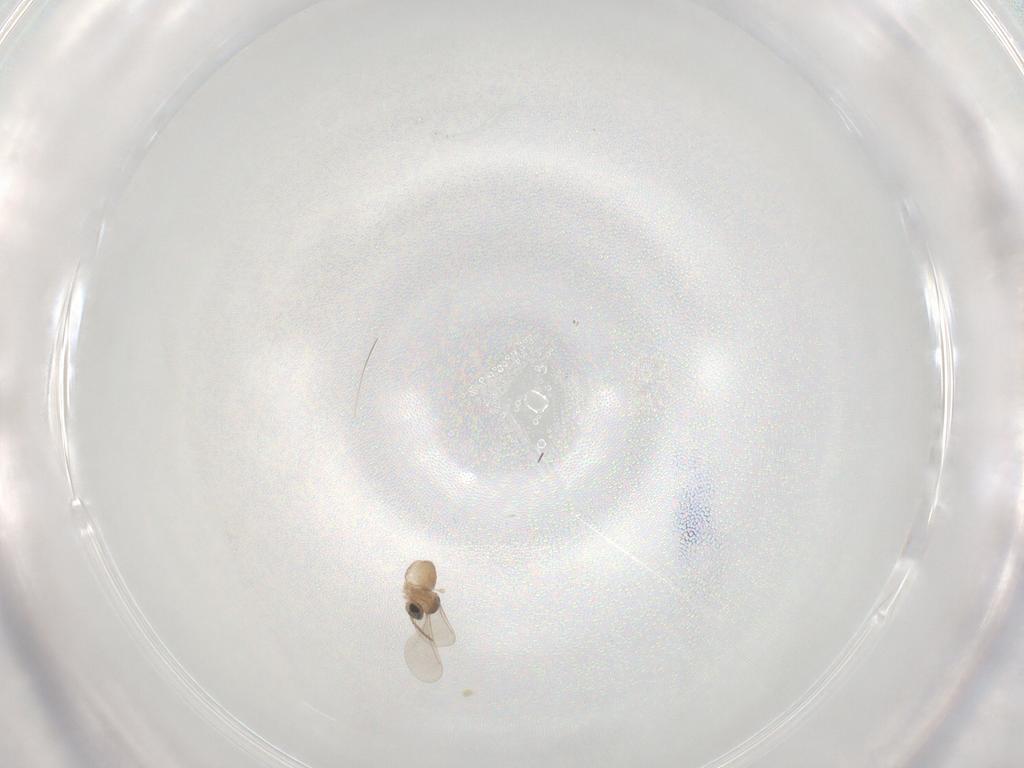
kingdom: Animalia
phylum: Arthropoda
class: Insecta
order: Diptera
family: Cecidomyiidae
